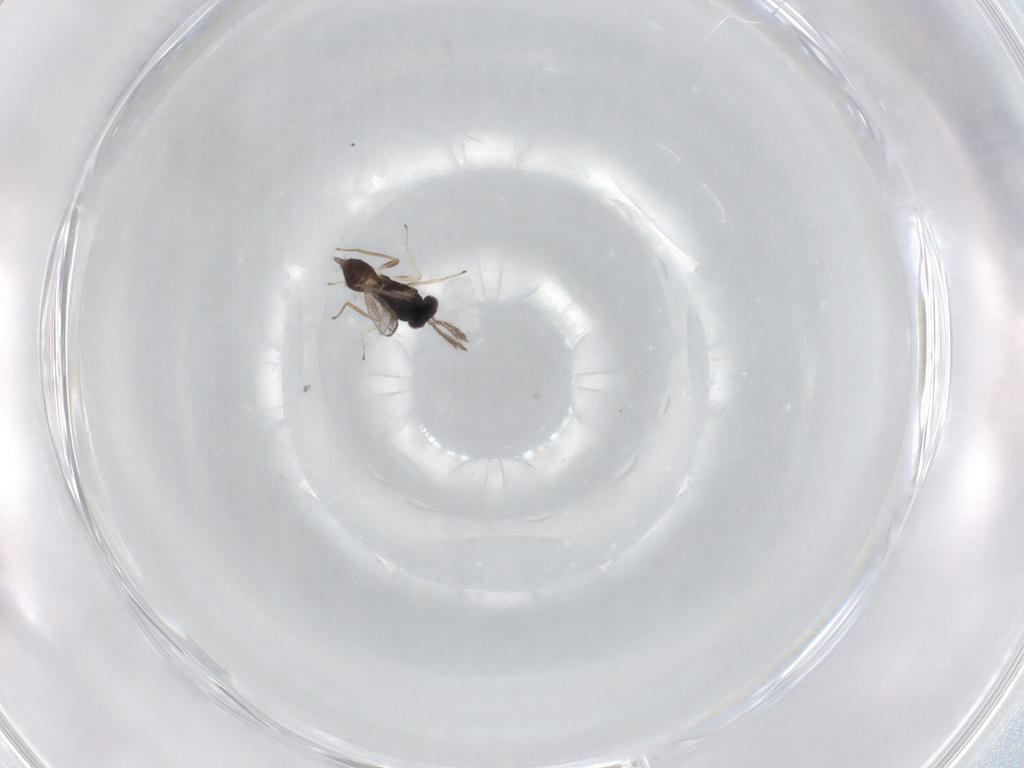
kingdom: Animalia
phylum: Arthropoda
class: Insecta
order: Hymenoptera
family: Eulophidae
